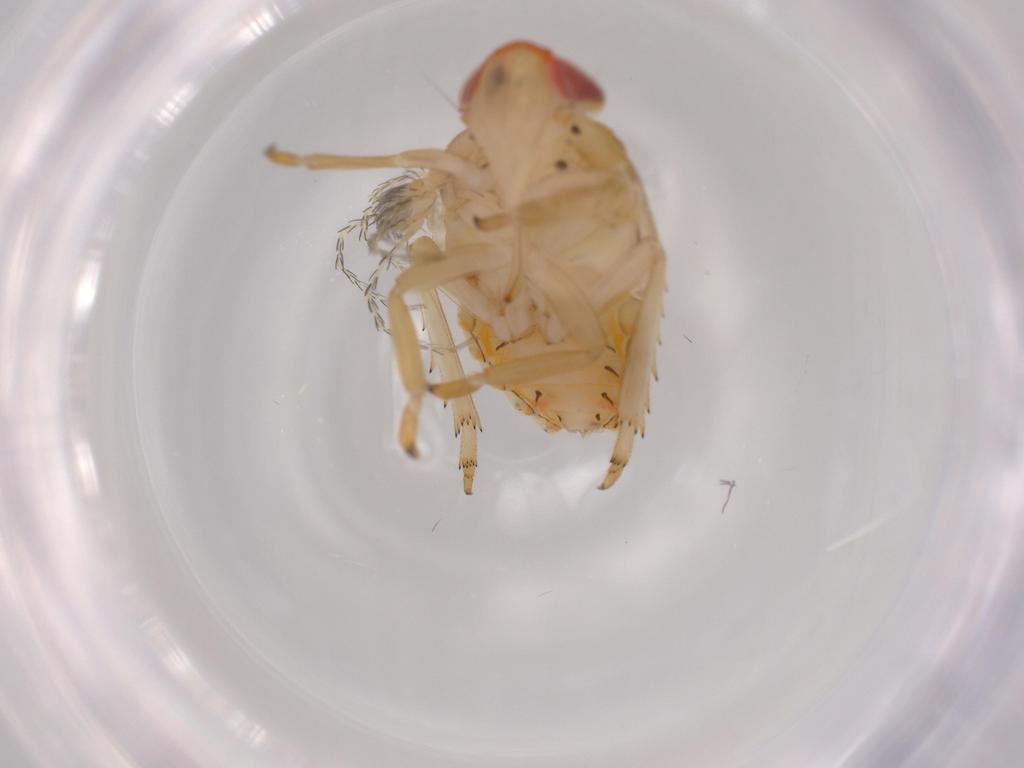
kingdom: Animalia
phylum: Arthropoda
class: Arachnida
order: Trombidiformes
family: Erythraeidae
